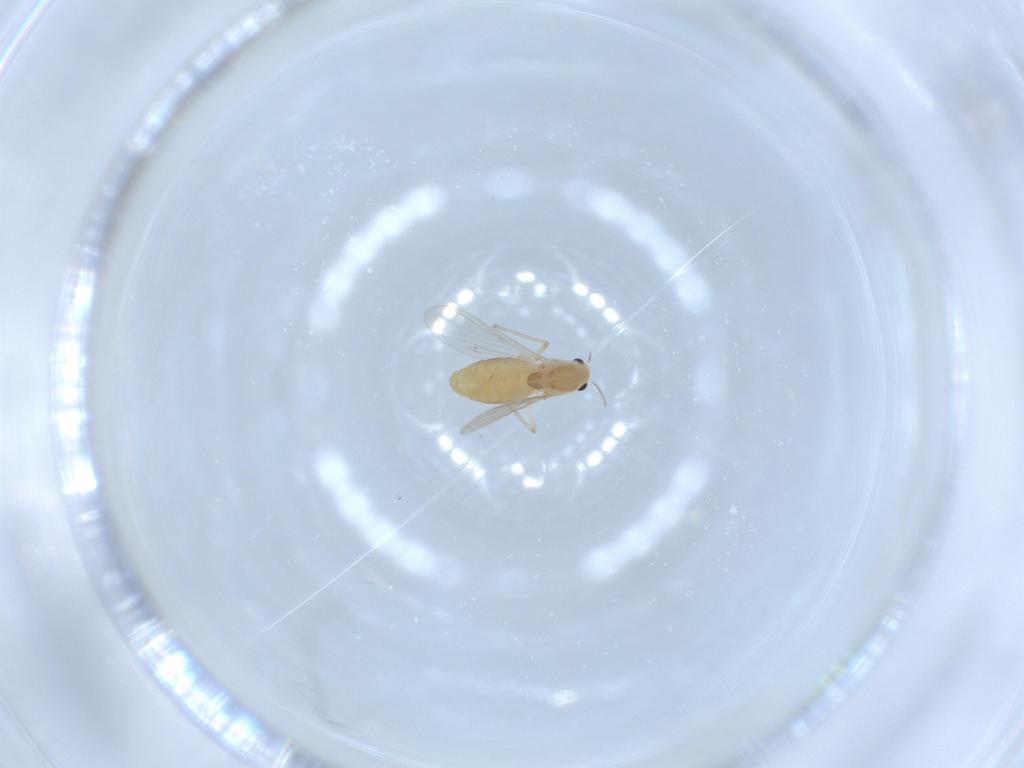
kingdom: Animalia
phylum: Arthropoda
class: Insecta
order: Diptera
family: Chironomidae
